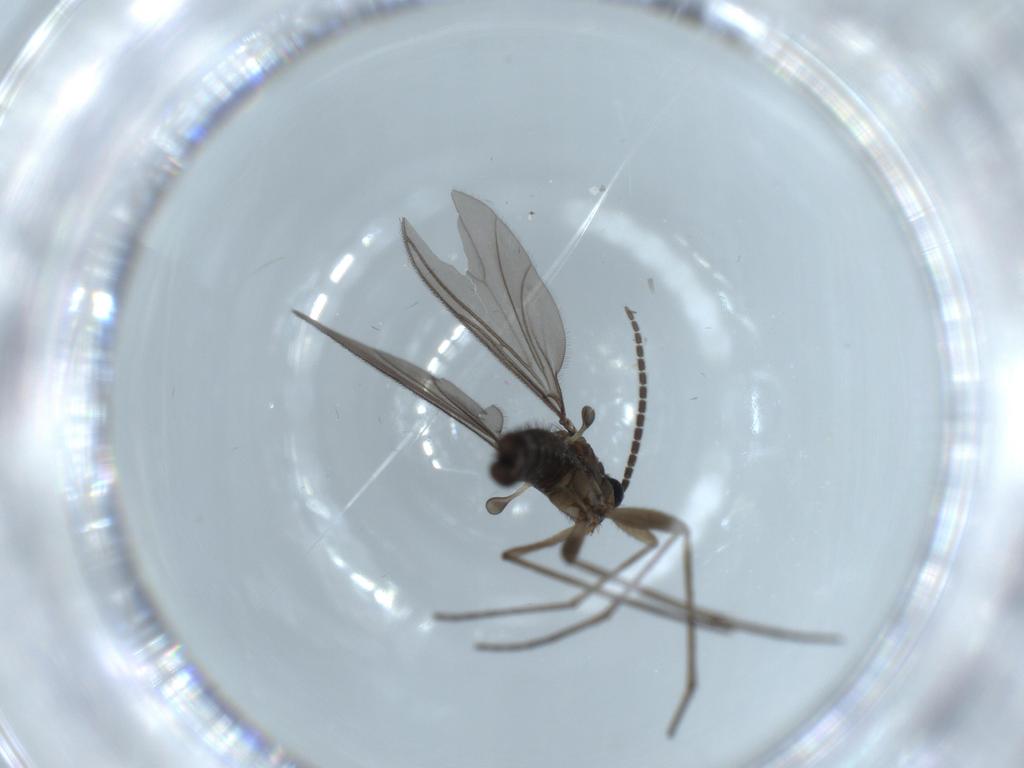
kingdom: Animalia
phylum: Arthropoda
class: Insecta
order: Diptera
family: Sciaridae
